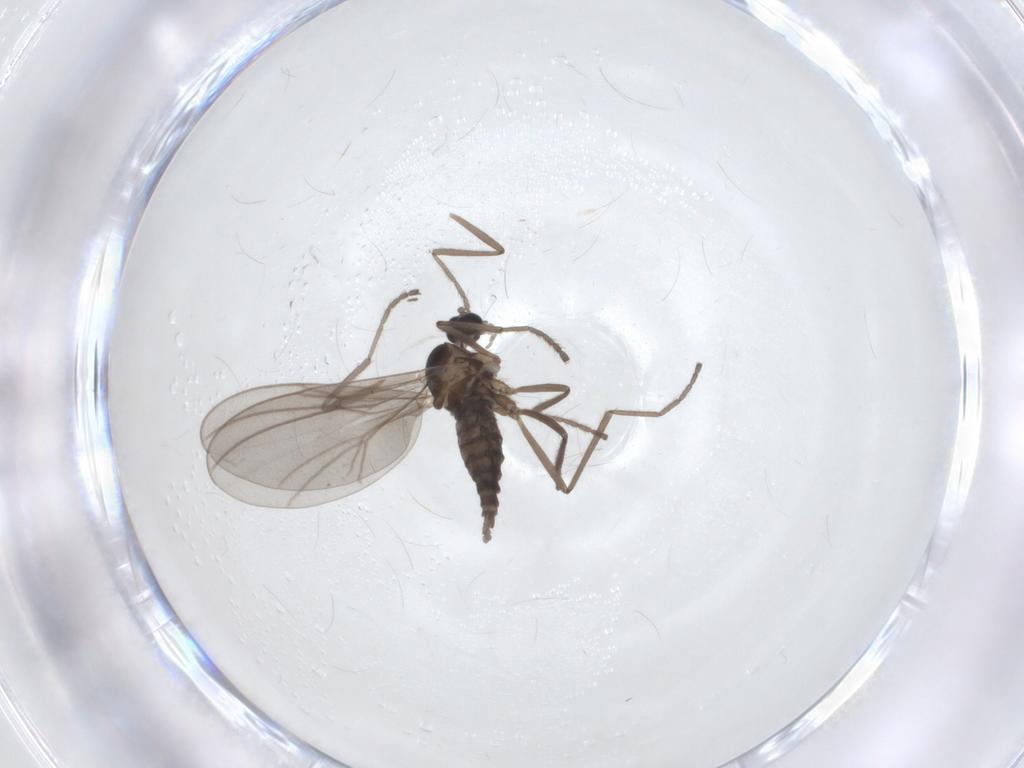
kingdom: Animalia
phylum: Arthropoda
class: Insecta
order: Diptera
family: Cecidomyiidae
